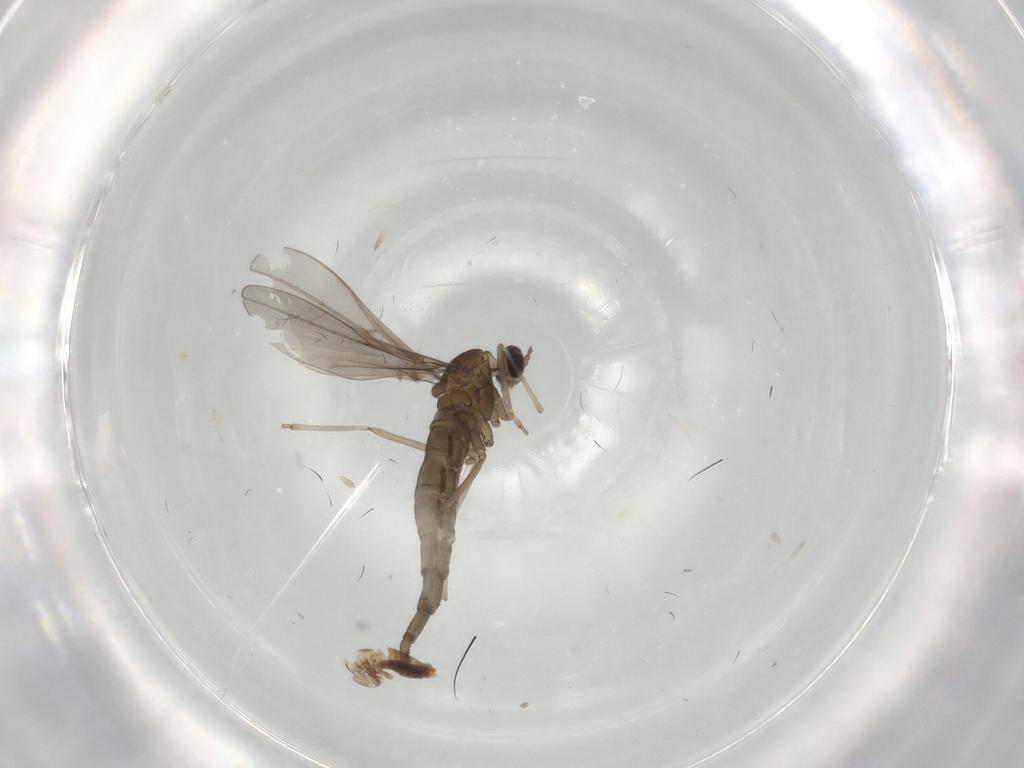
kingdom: Animalia
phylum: Arthropoda
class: Insecta
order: Diptera
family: Cecidomyiidae
